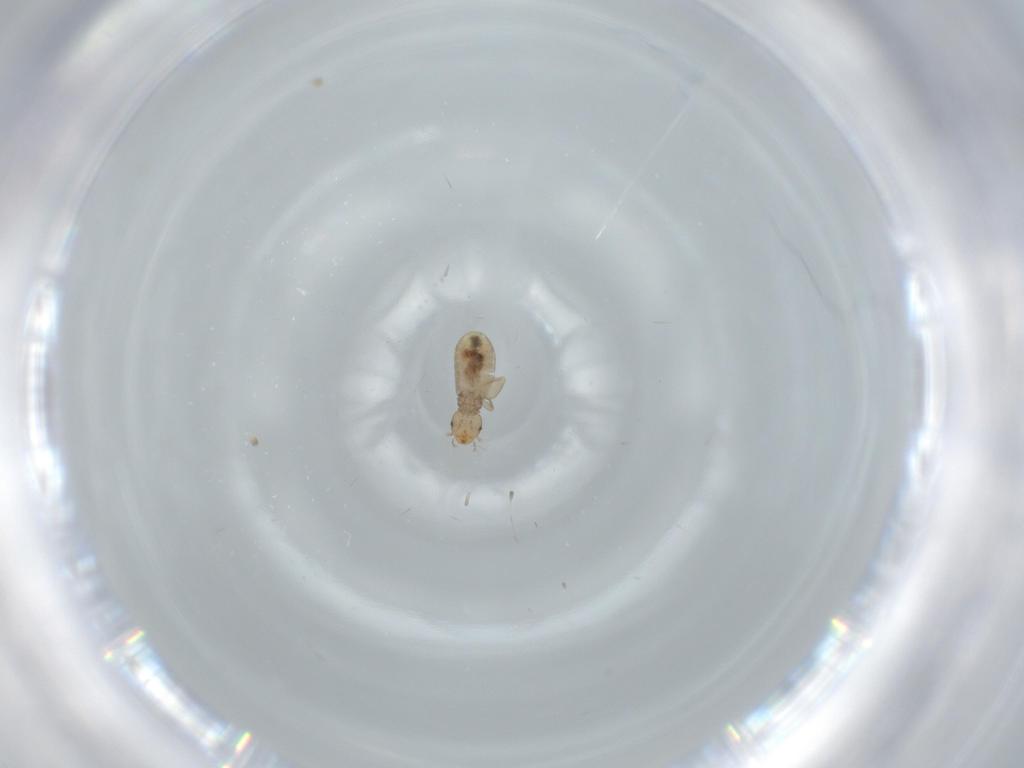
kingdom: Animalia
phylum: Arthropoda
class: Insecta
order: Psocodea
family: Liposcelididae
